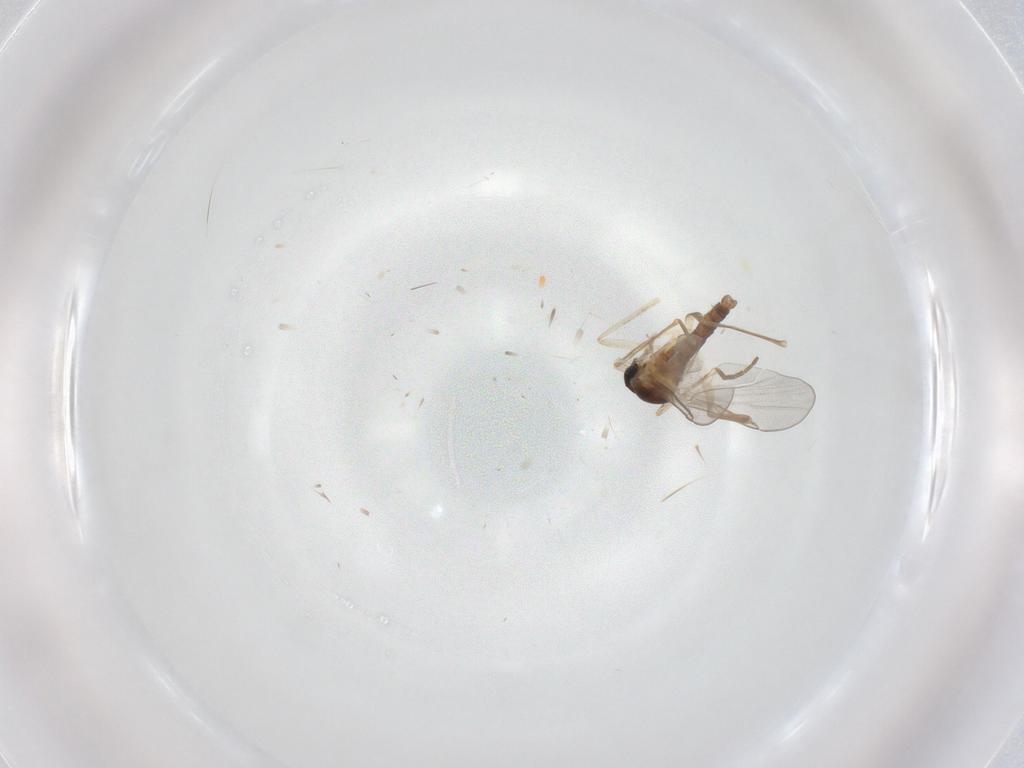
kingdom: Animalia
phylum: Arthropoda
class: Insecta
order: Diptera
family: Cecidomyiidae
